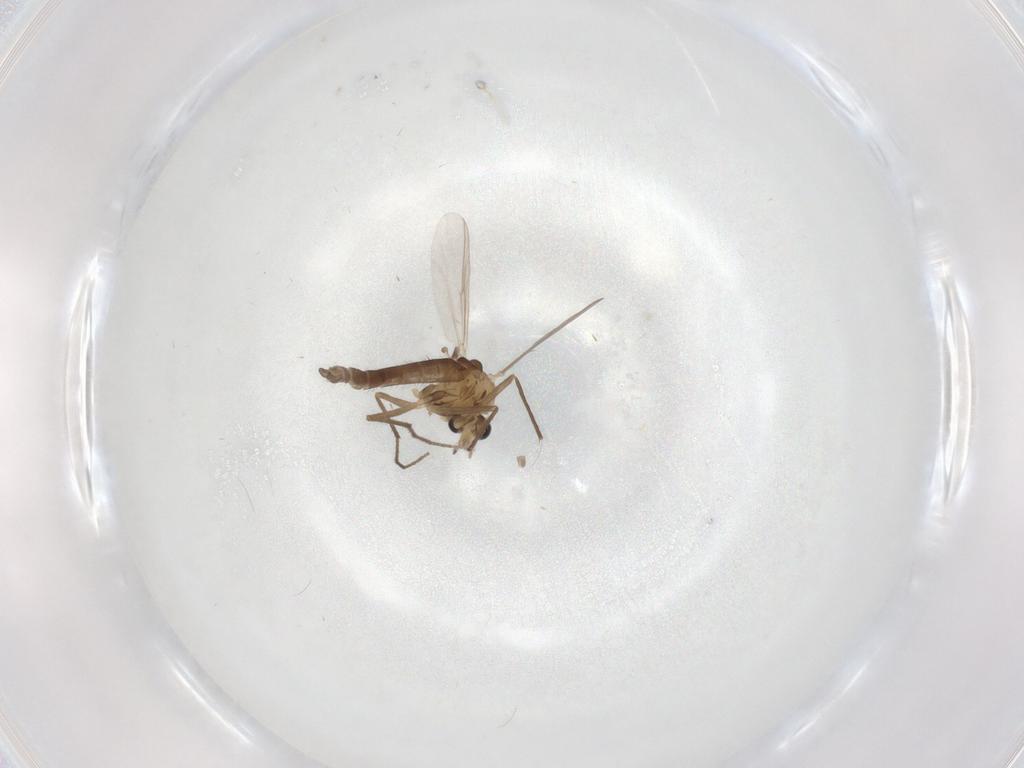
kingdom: Animalia
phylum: Arthropoda
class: Insecta
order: Diptera
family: Chironomidae
